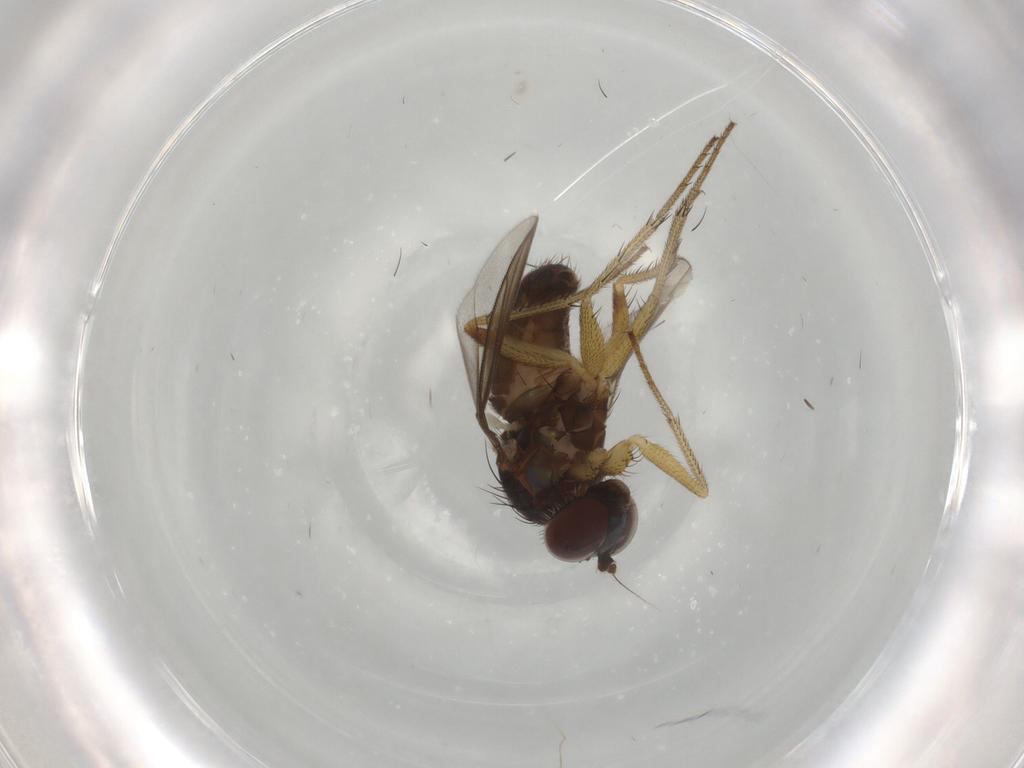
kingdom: Animalia
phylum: Arthropoda
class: Insecta
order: Diptera
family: Dolichopodidae
